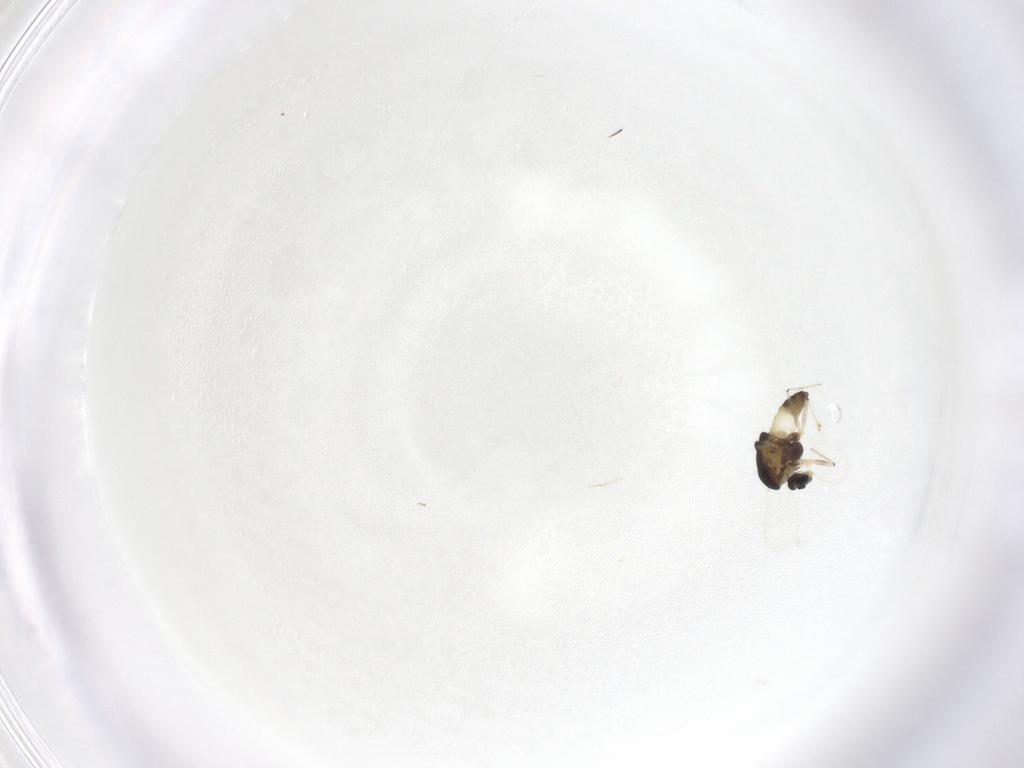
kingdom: Animalia
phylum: Arthropoda
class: Insecta
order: Diptera
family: Chironomidae
